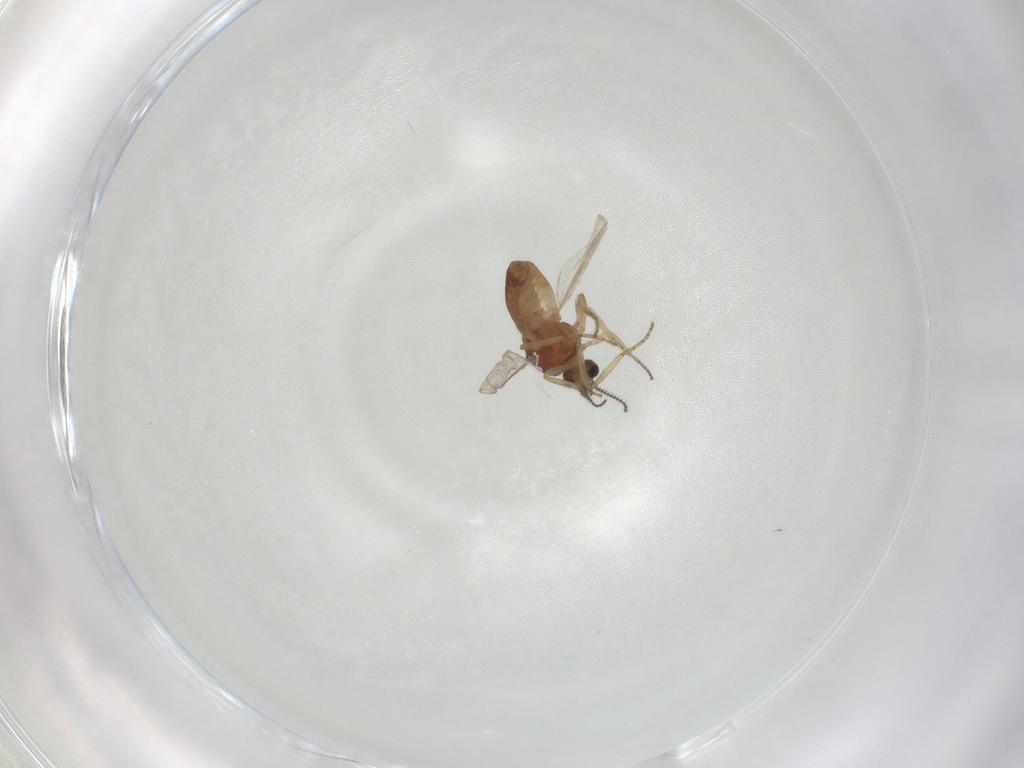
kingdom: Animalia
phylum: Arthropoda
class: Insecta
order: Diptera
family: Ceratopogonidae
